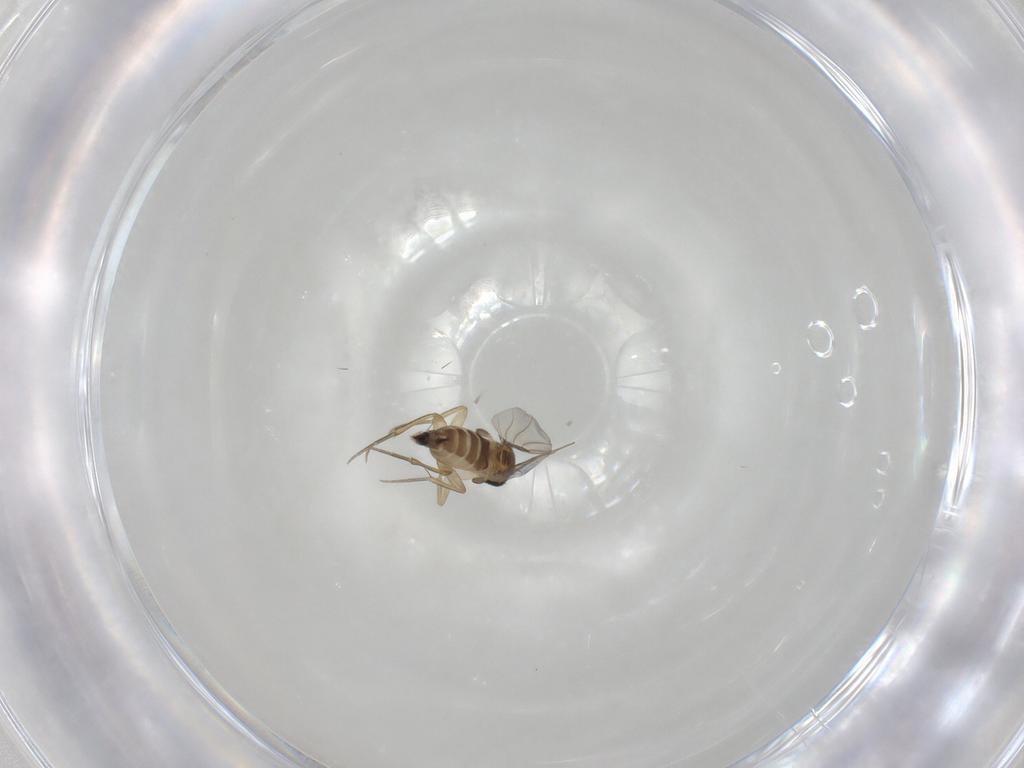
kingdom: Animalia
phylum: Arthropoda
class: Insecta
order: Diptera
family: Phoridae
